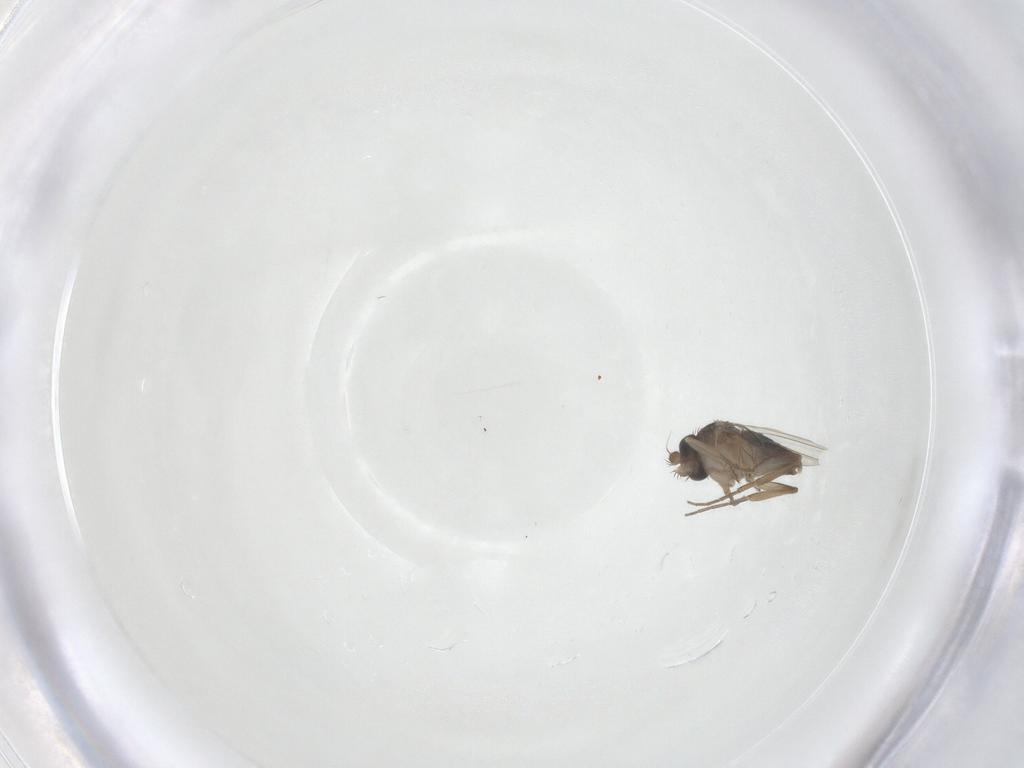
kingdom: Animalia
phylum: Arthropoda
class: Insecta
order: Diptera
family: Phoridae
